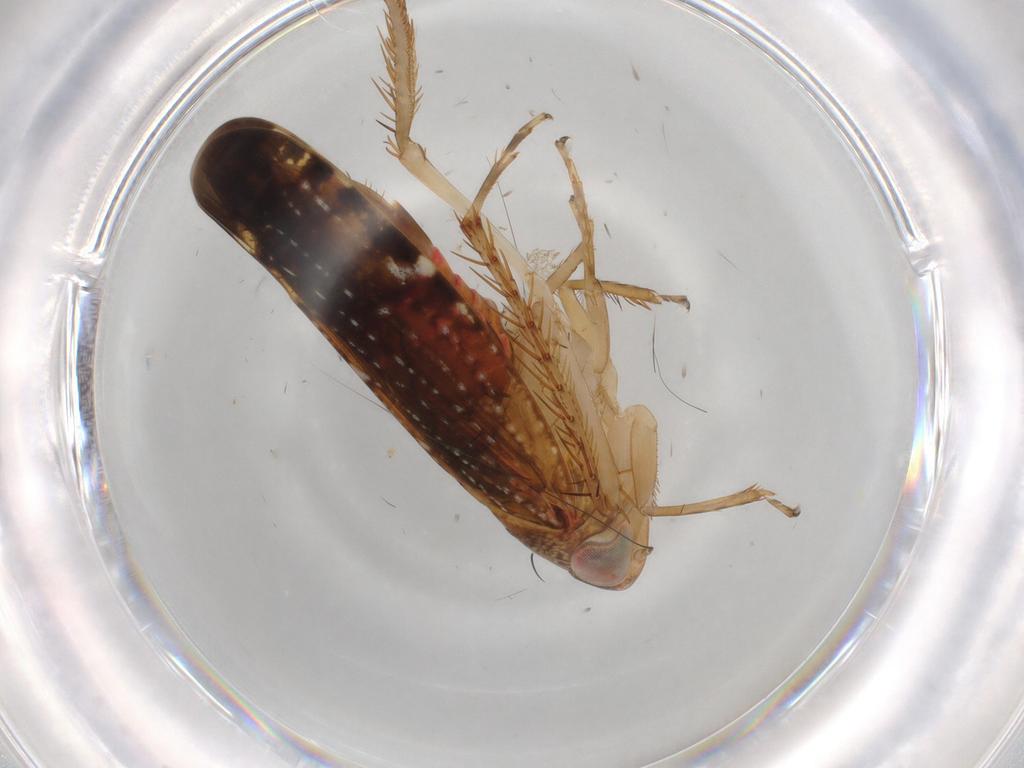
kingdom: Animalia
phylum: Arthropoda
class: Insecta
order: Hemiptera
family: Cicadellidae
